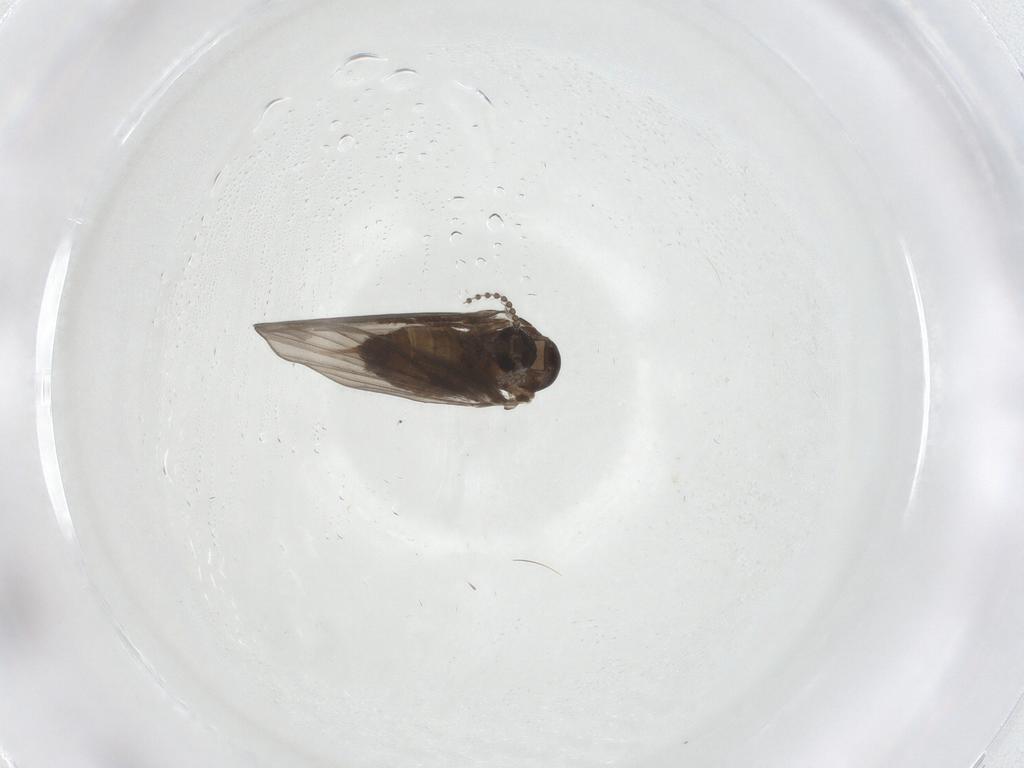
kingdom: Animalia
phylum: Arthropoda
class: Insecta
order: Diptera
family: Psychodidae
